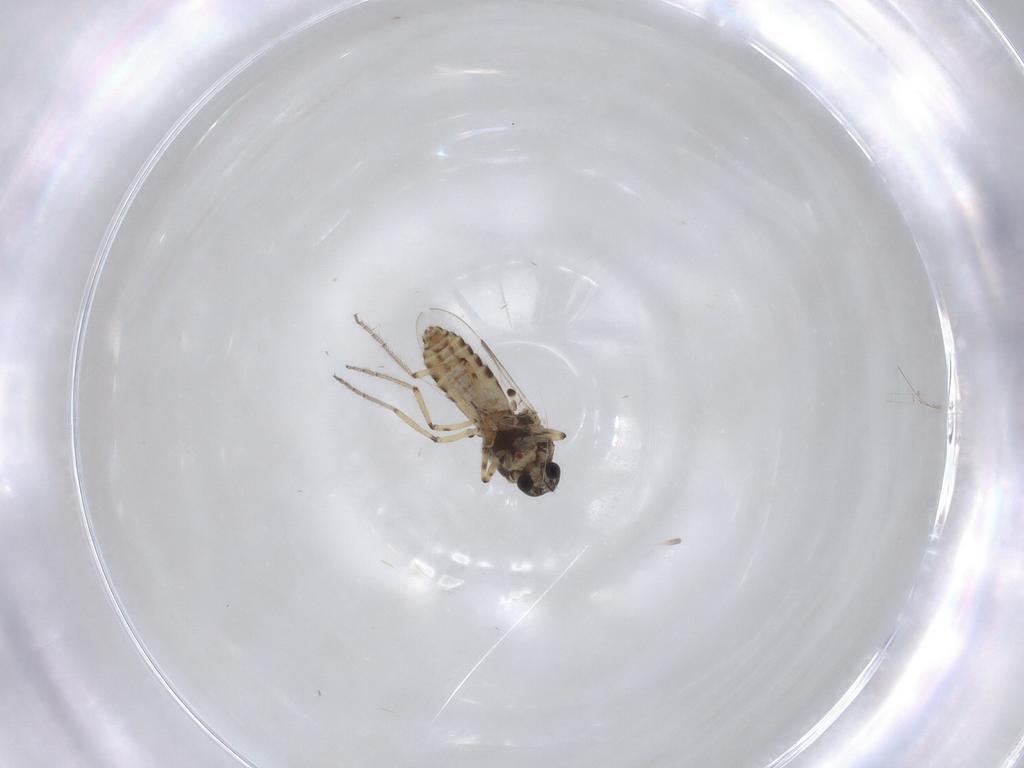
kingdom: Animalia
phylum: Arthropoda
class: Insecta
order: Diptera
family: Ceratopogonidae
